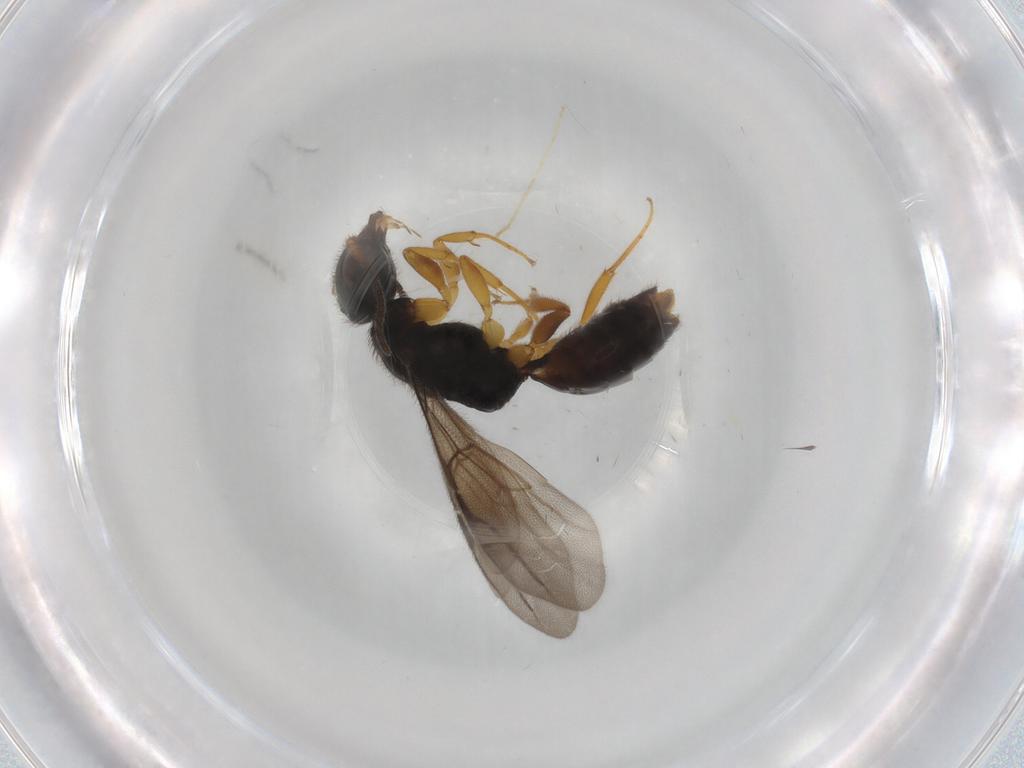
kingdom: Animalia
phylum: Arthropoda
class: Insecta
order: Hymenoptera
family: Bethylidae
